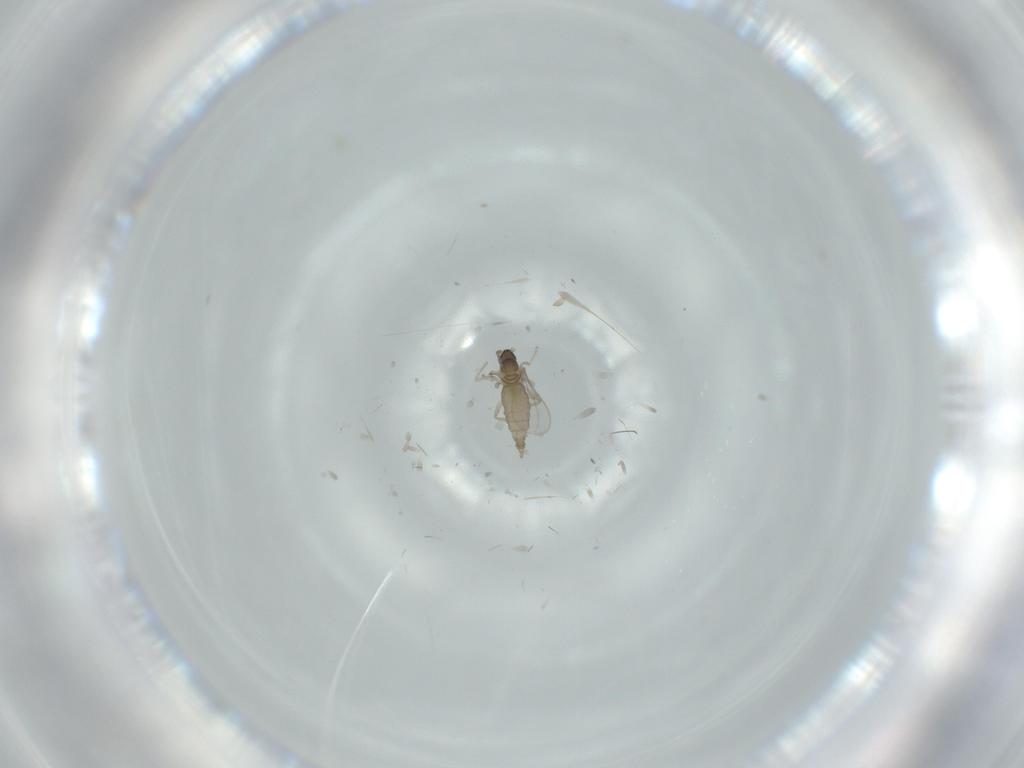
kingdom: Animalia
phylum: Arthropoda
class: Insecta
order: Diptera
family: Cecidomyiidae
